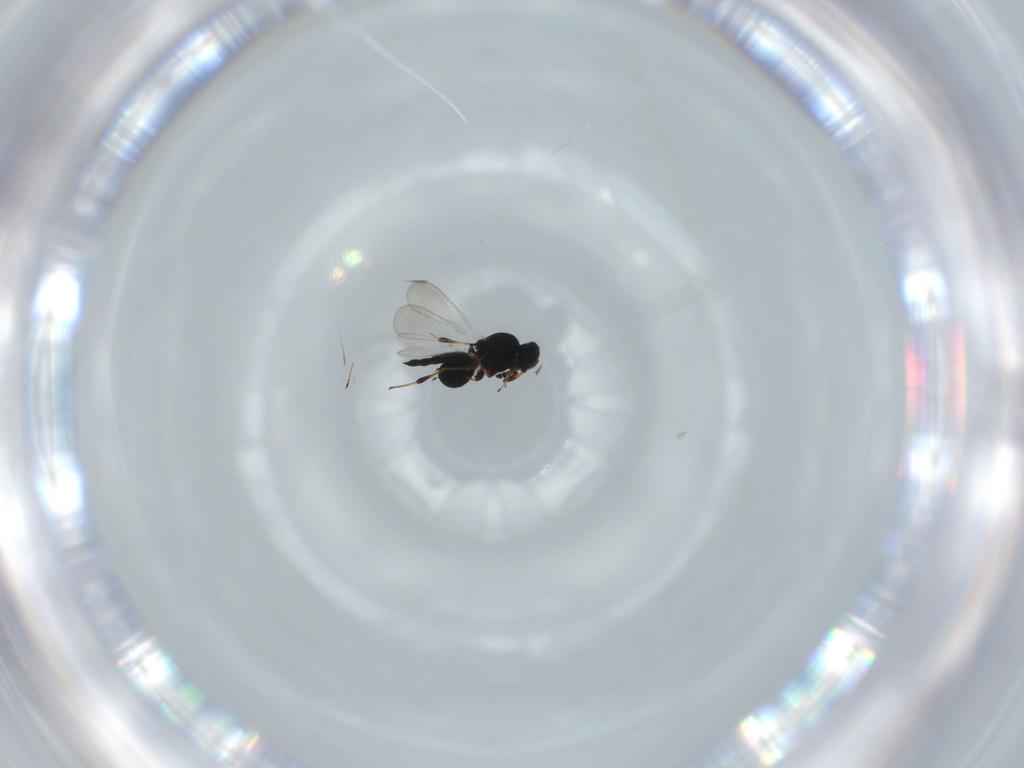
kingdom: Animalia
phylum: Arthropoda
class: Insecta
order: Hymenoptera
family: Platygastridae
